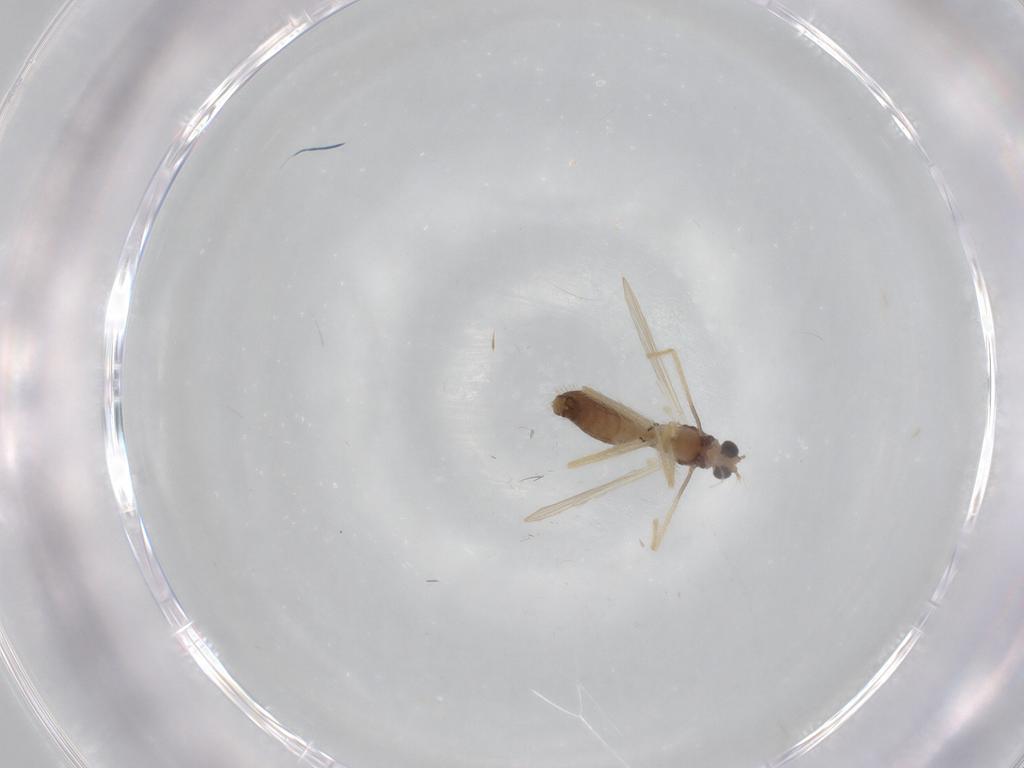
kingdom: Animalia
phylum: Arthropoda
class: Insecta
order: Diptera
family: Chironomidae
